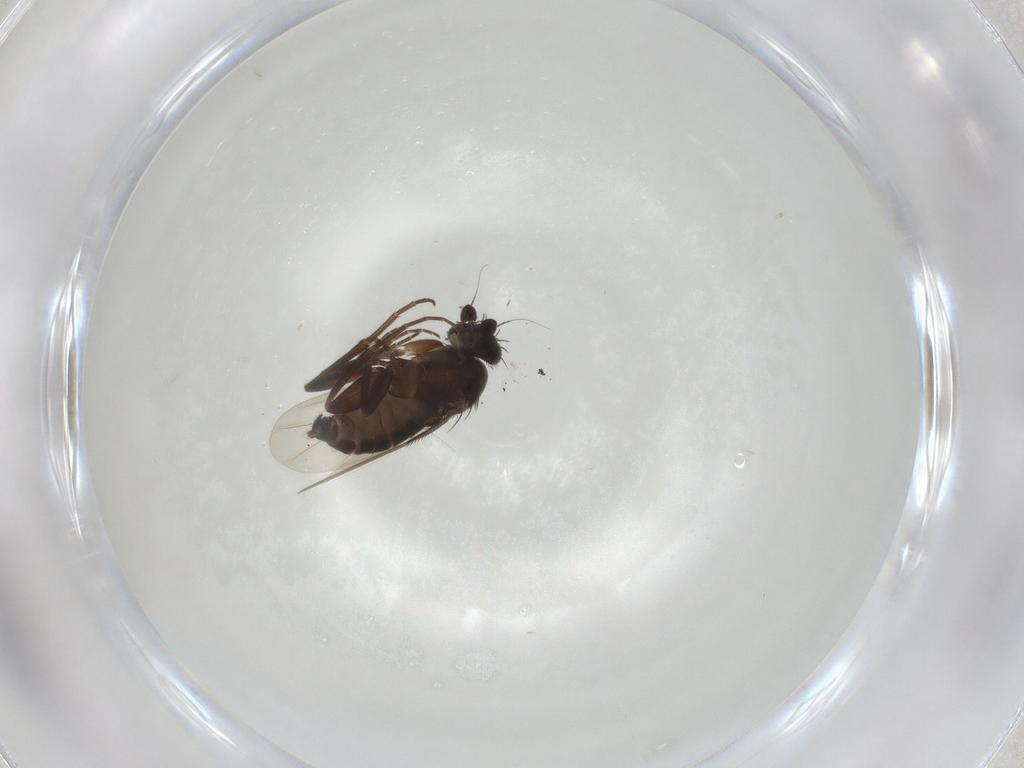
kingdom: Animalia
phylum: Arthropoda
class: Insecta
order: Diptera
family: Phoridae
